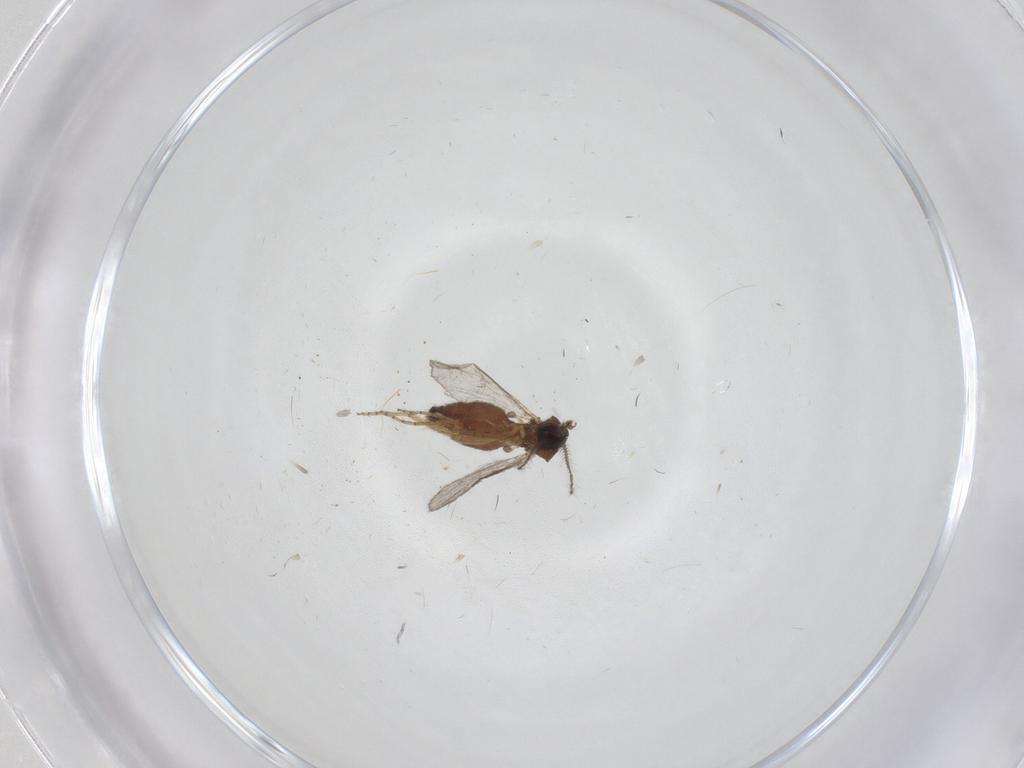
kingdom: Animalia
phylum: Arthropoda
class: Insecta
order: Diptera
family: Ceratopogonidae
